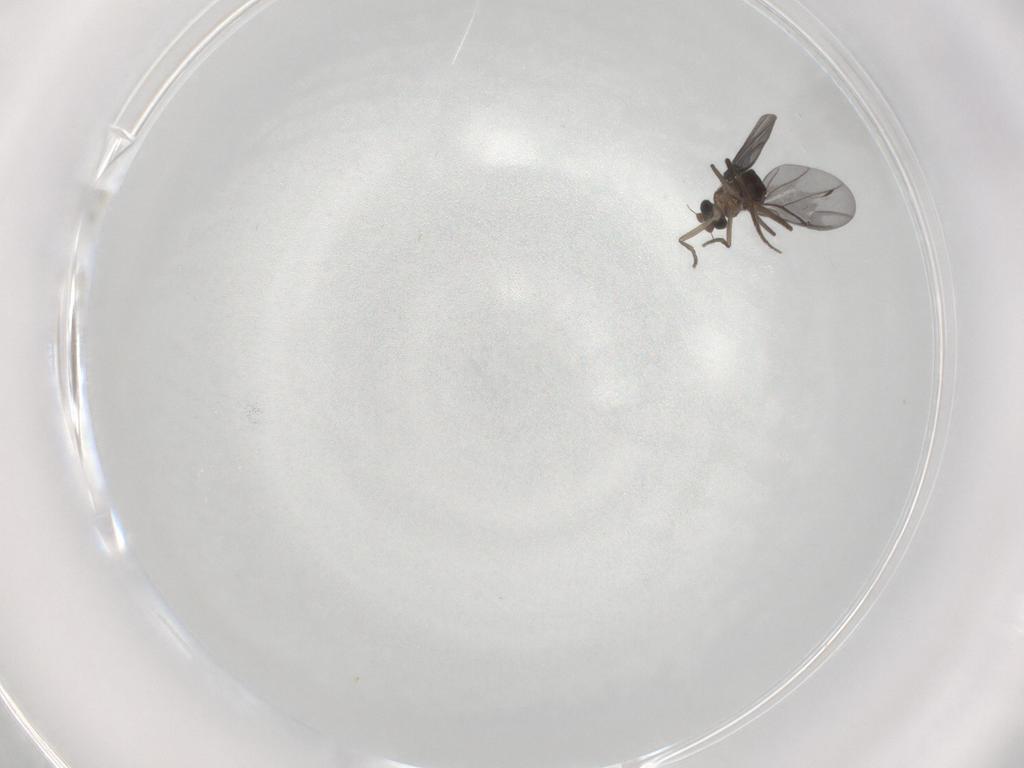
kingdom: Animalia
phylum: Arthropoda
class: Insecta
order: Diptera
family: Phoridae
